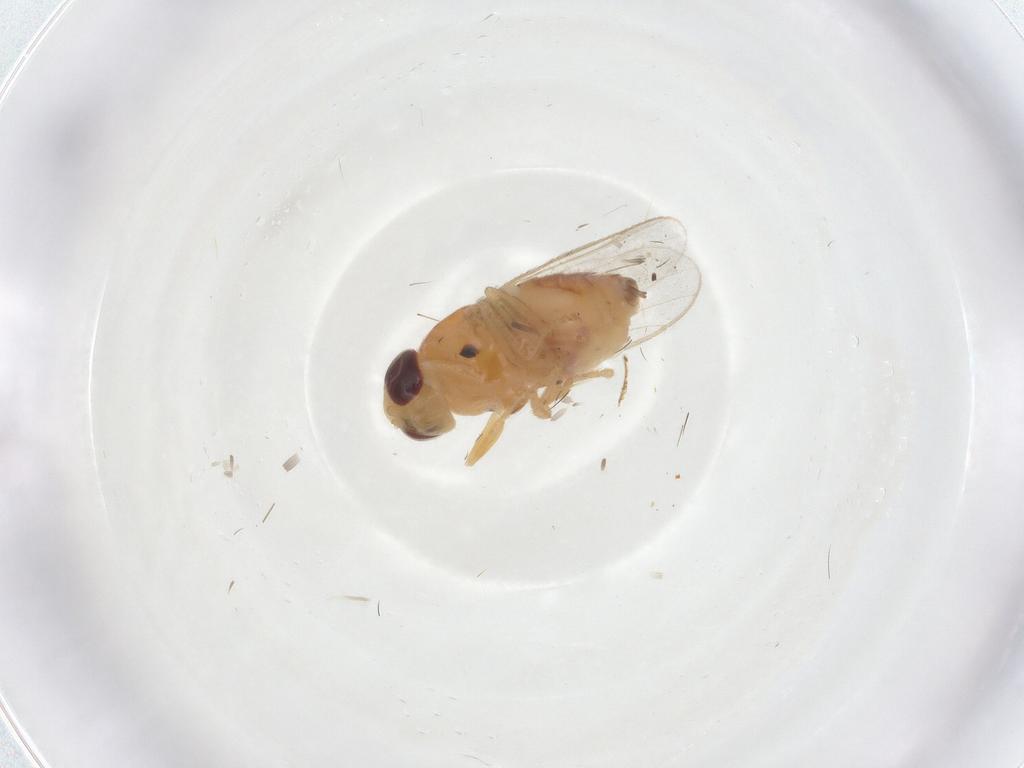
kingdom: Animalia
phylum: Arthropoda
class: Insecta
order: Diptera
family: Chloropidae
